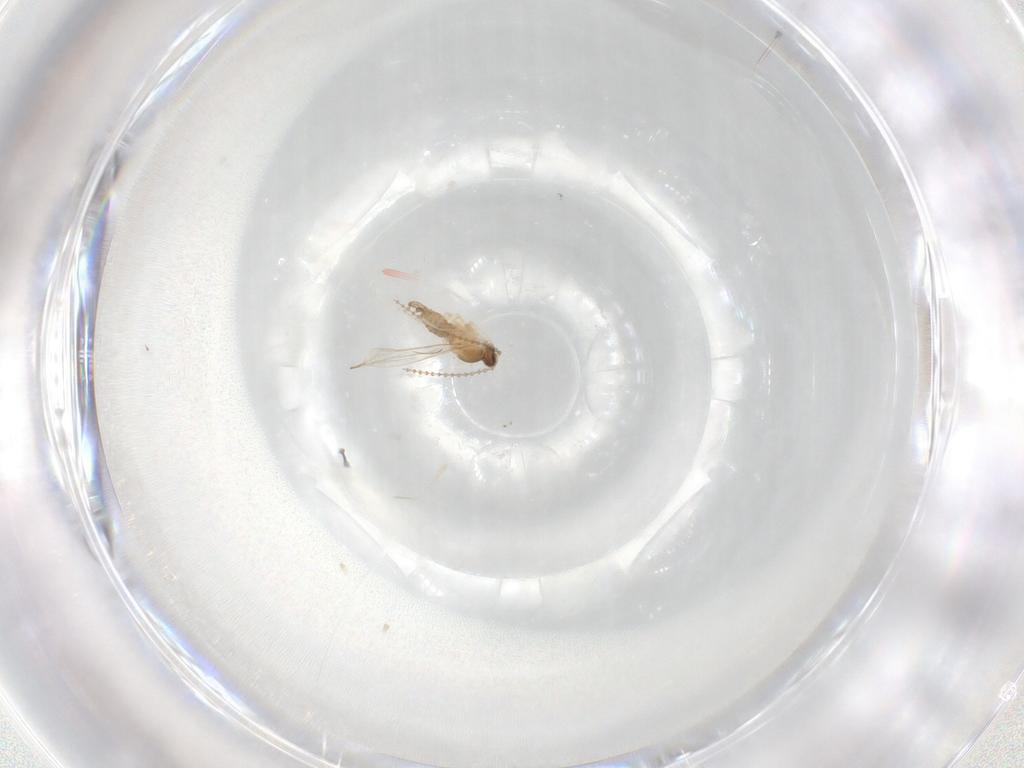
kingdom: Animalia
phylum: Arthropoda
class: Insecta
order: Diptera
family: Cecidomyiidae
